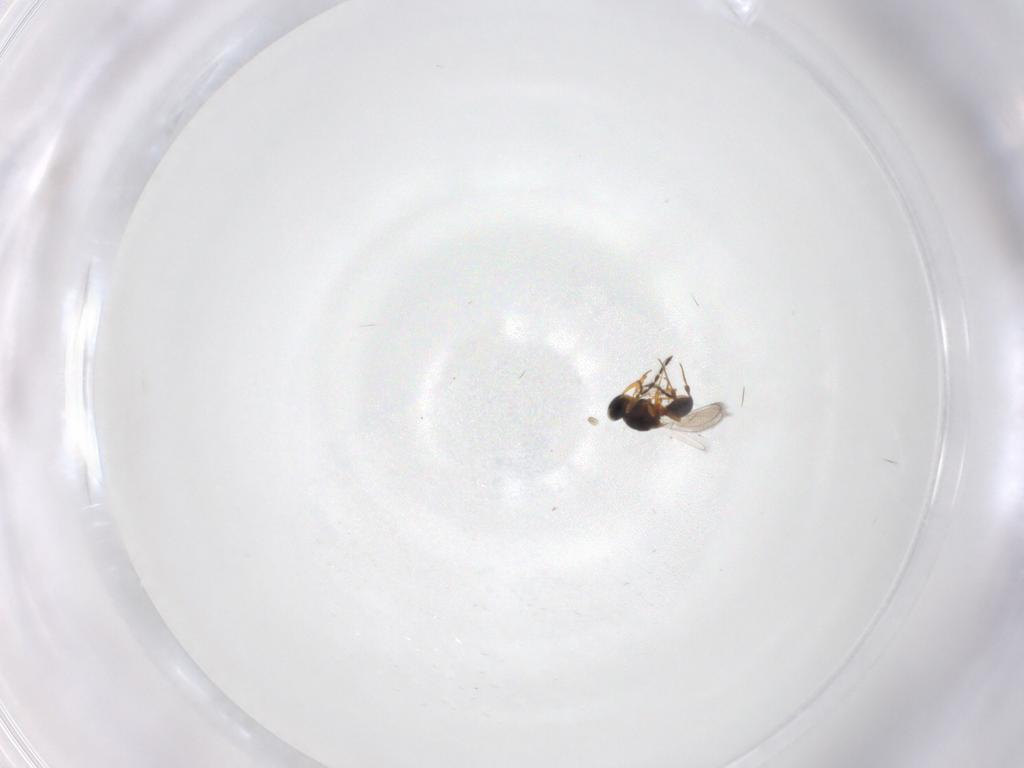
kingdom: Animalia
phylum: Arthropoda
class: Insecta
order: Hymenoptera
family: Platygastridae
